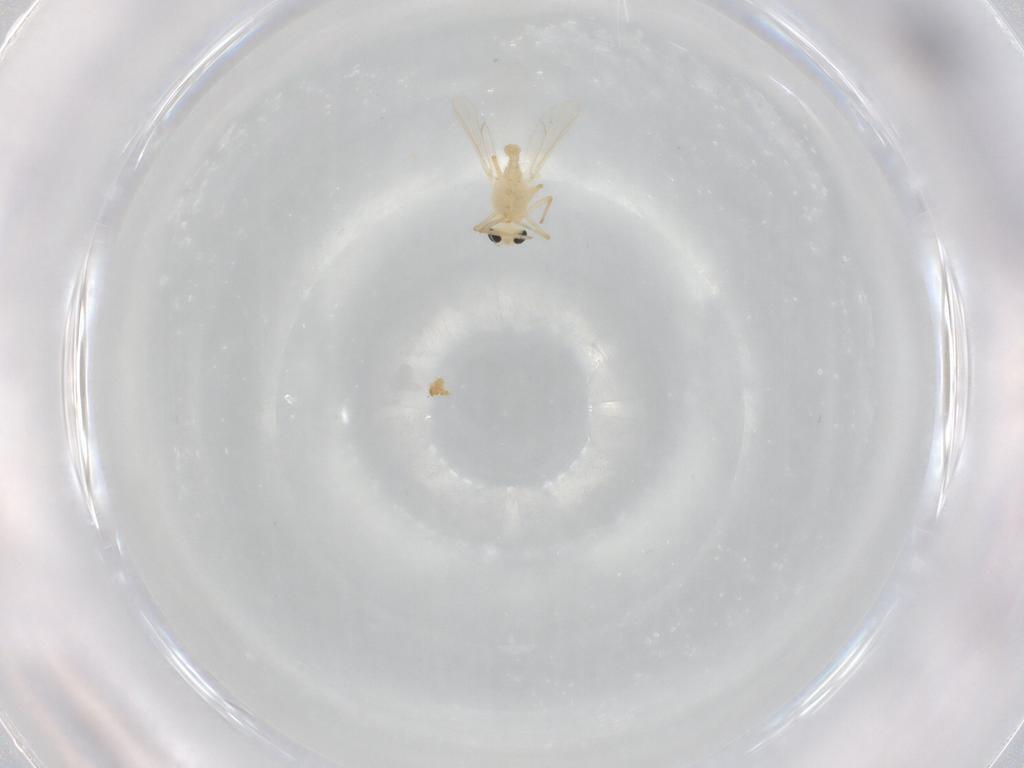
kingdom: Animalia
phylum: Arthropoda
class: Insecta
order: Diptera
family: Chironomidae
